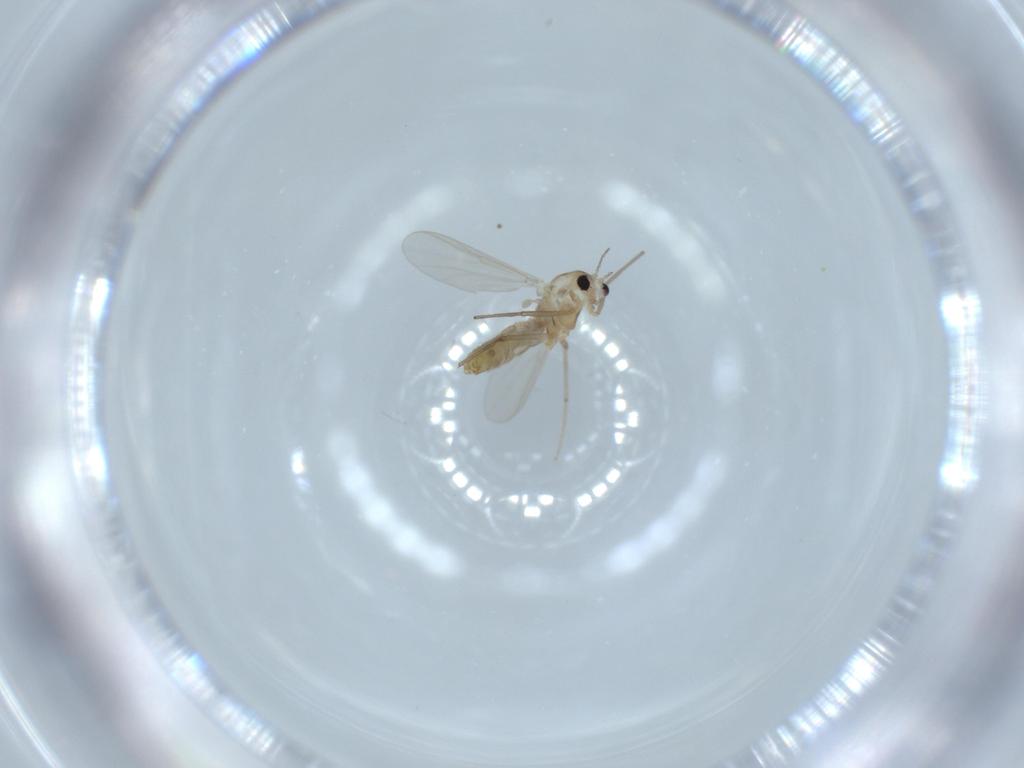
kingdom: Animalia
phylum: Arthropoda
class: Insecta
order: Diptera
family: Chironomidae
